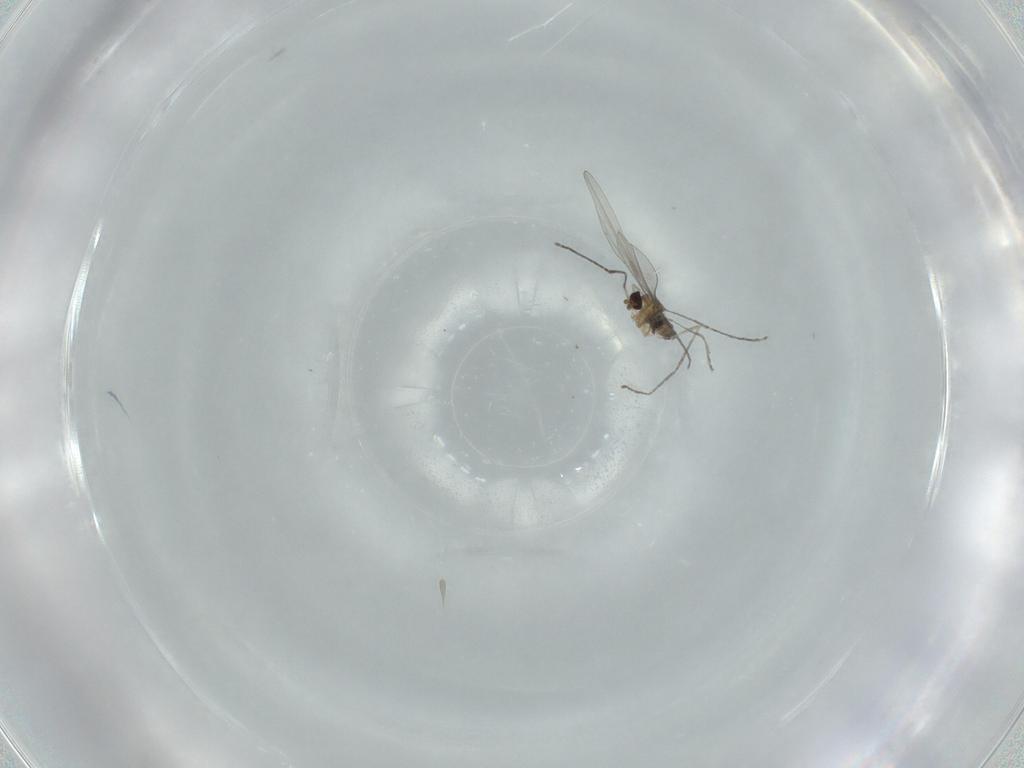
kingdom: Animalia
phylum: Arthropoda
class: Insecta
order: Diptera
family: Cecidomyiidae
